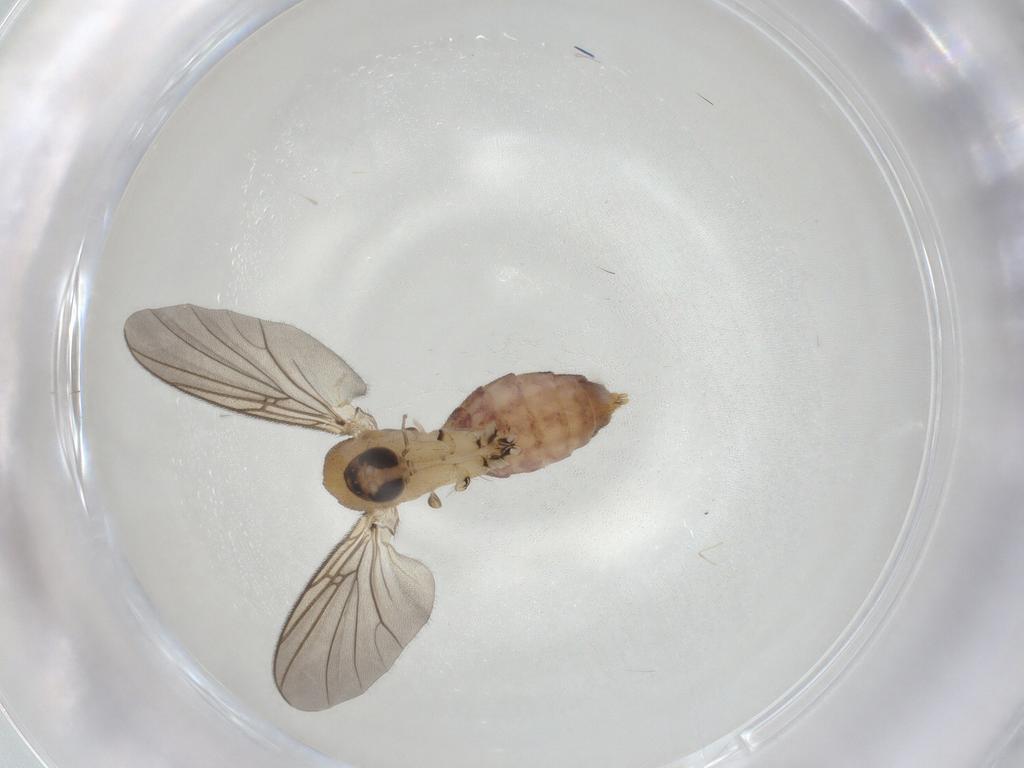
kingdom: Animalia
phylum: Arthropoda
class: Insecta
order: Diptera
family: Mycetophilidae
